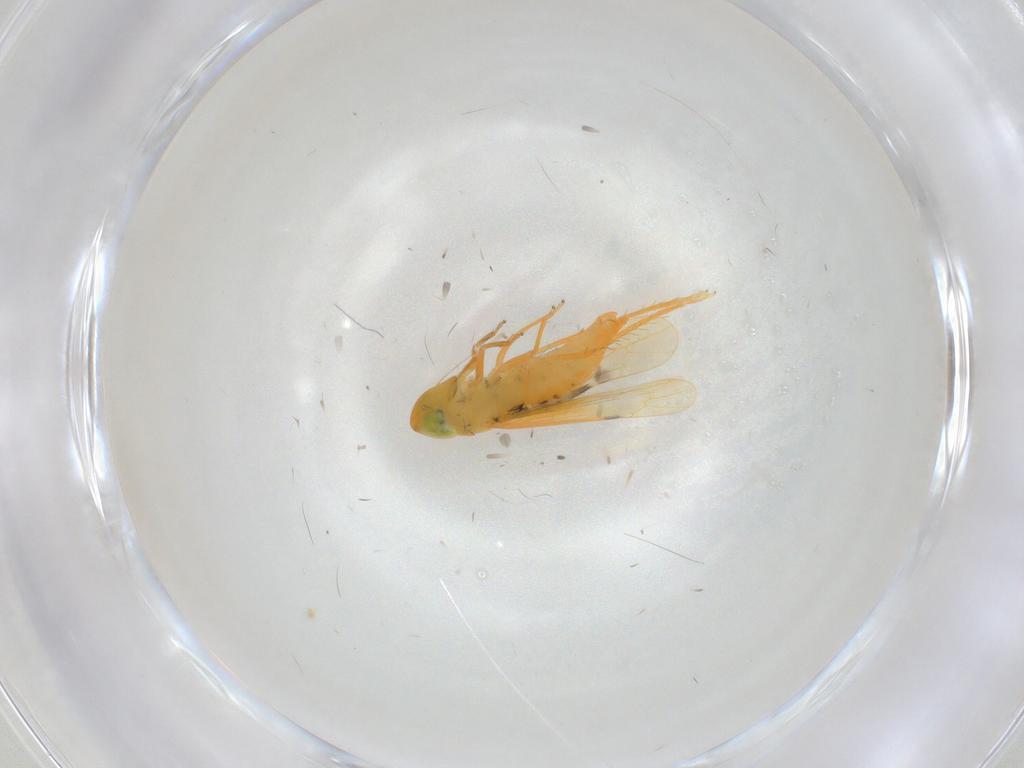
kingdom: Animalia
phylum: Arthropoda
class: Insecta
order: Hemiptera
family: Cicadellidae
